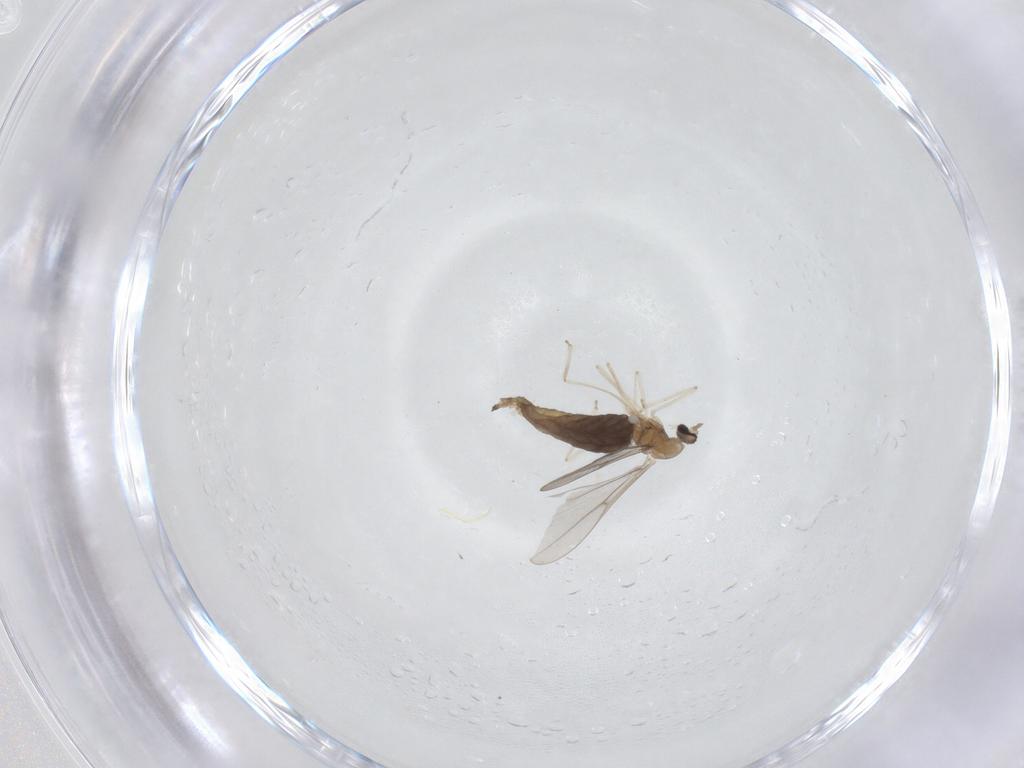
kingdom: Animalia
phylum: Arthropoda
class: Insecta
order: Diptera
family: Cecidomyiidae
